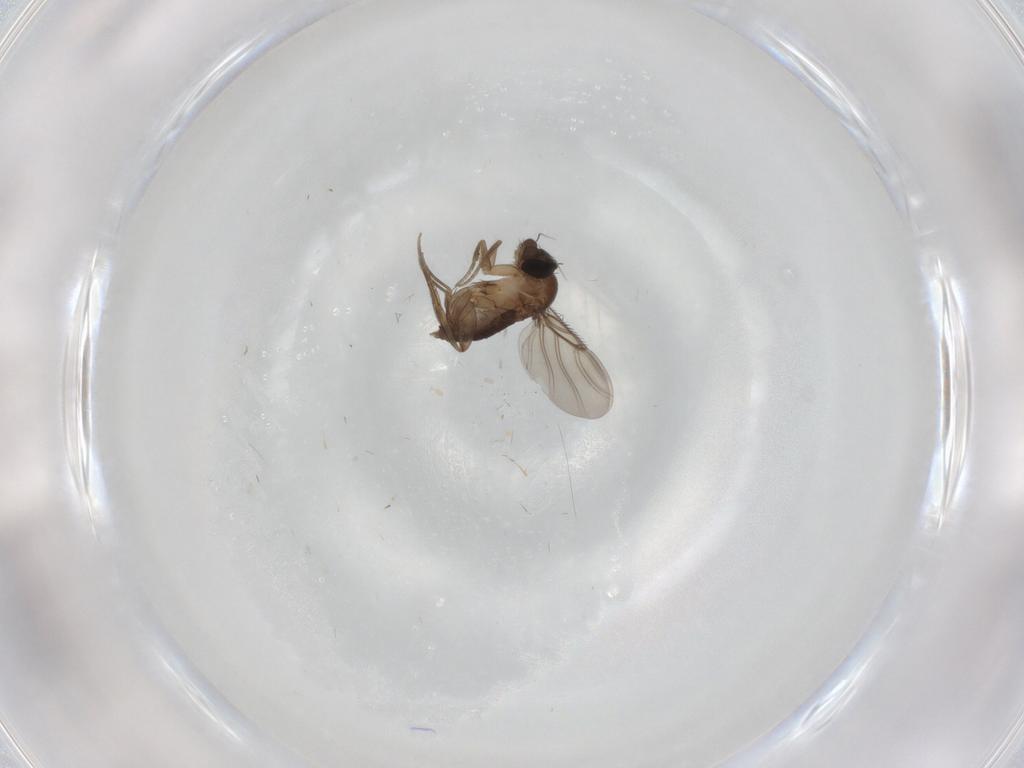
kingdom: Animalia
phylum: Arthropoda
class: Insecta
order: Diptera
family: Phoridae
